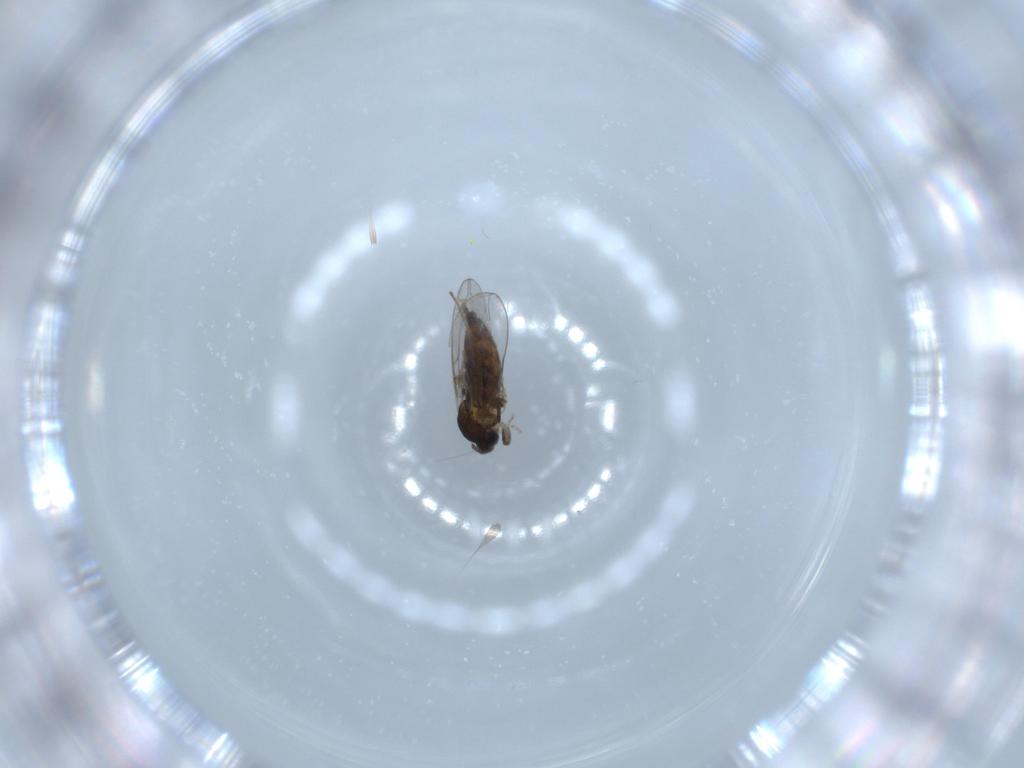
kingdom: Animalia
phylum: Arthropoda
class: Insecta
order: Diptera
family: Cecidomyiidae
